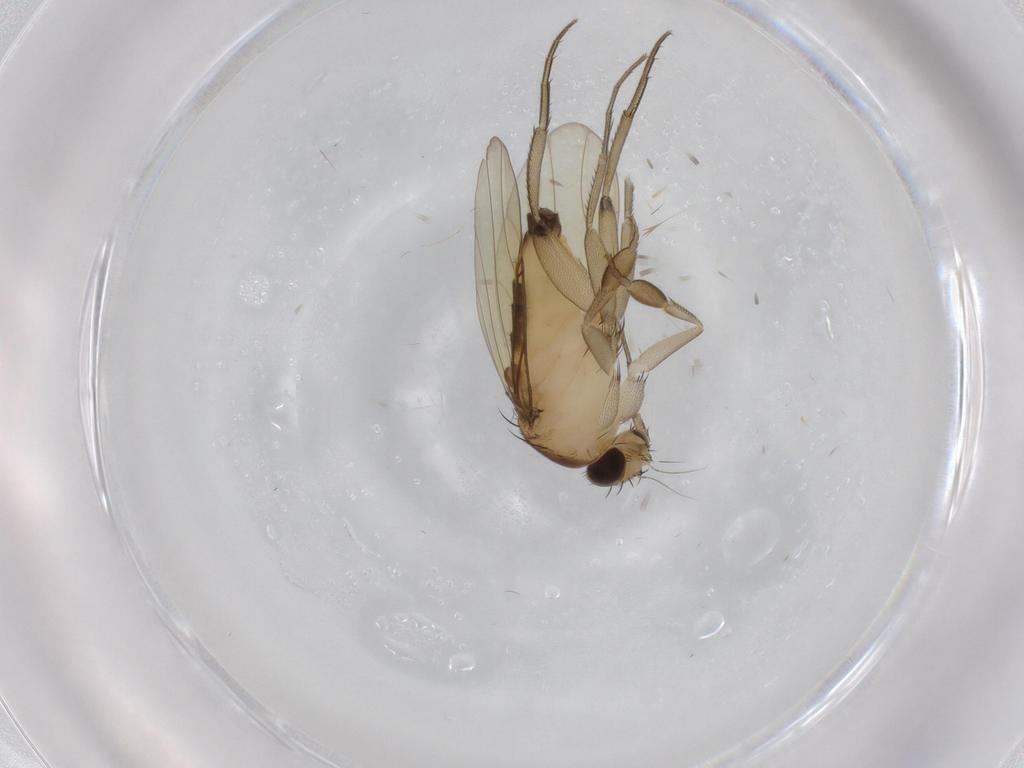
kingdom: Animalia
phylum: Arthropoda
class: Insecta
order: Diptera
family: Phoridae
